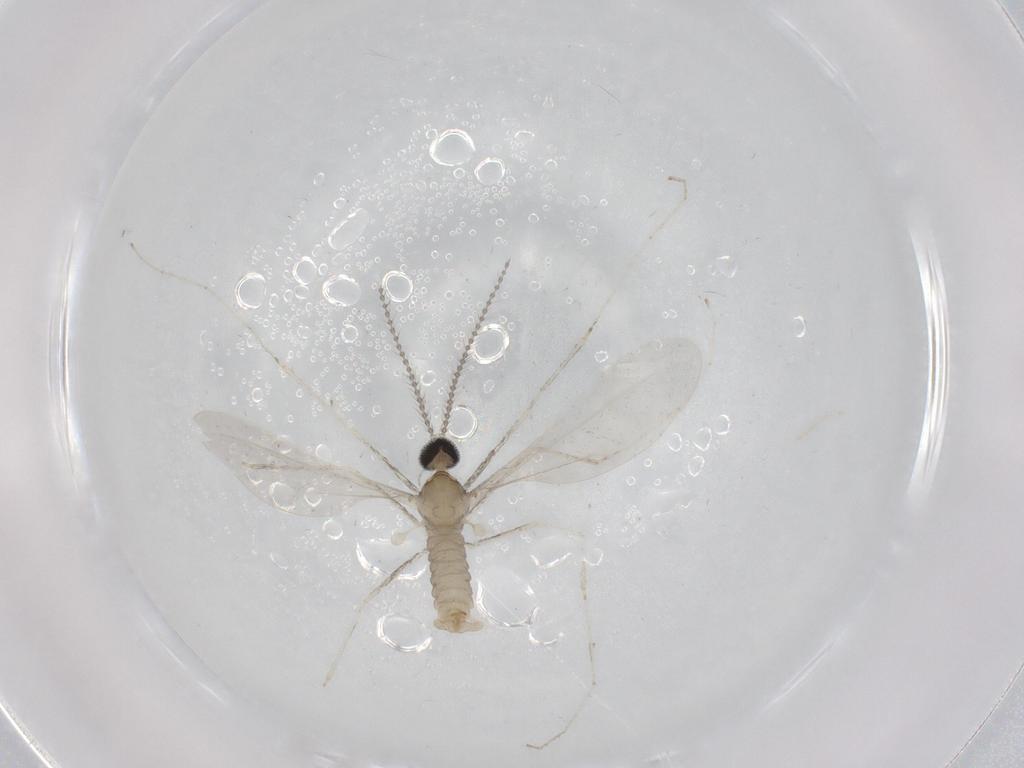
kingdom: Animalia
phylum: Arthropoda
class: Insecta
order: Diptera
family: Cecidomyiidae
